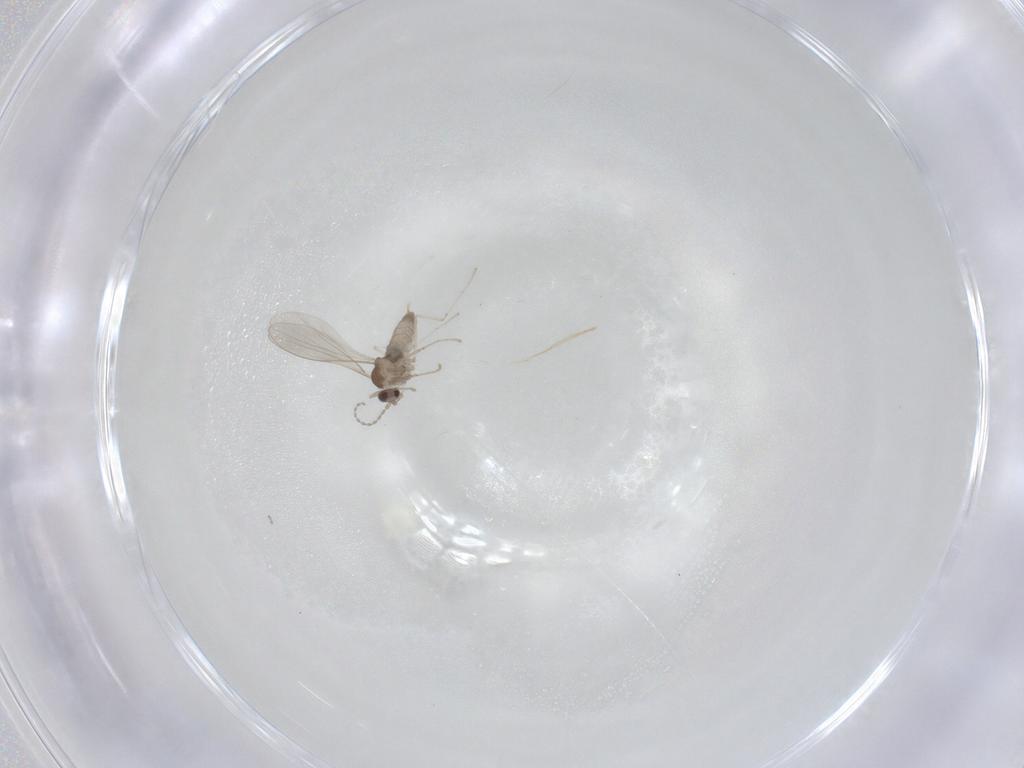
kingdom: Animalia
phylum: Arthropoda
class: Insecta
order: Diptera
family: Cecidomyiidae
